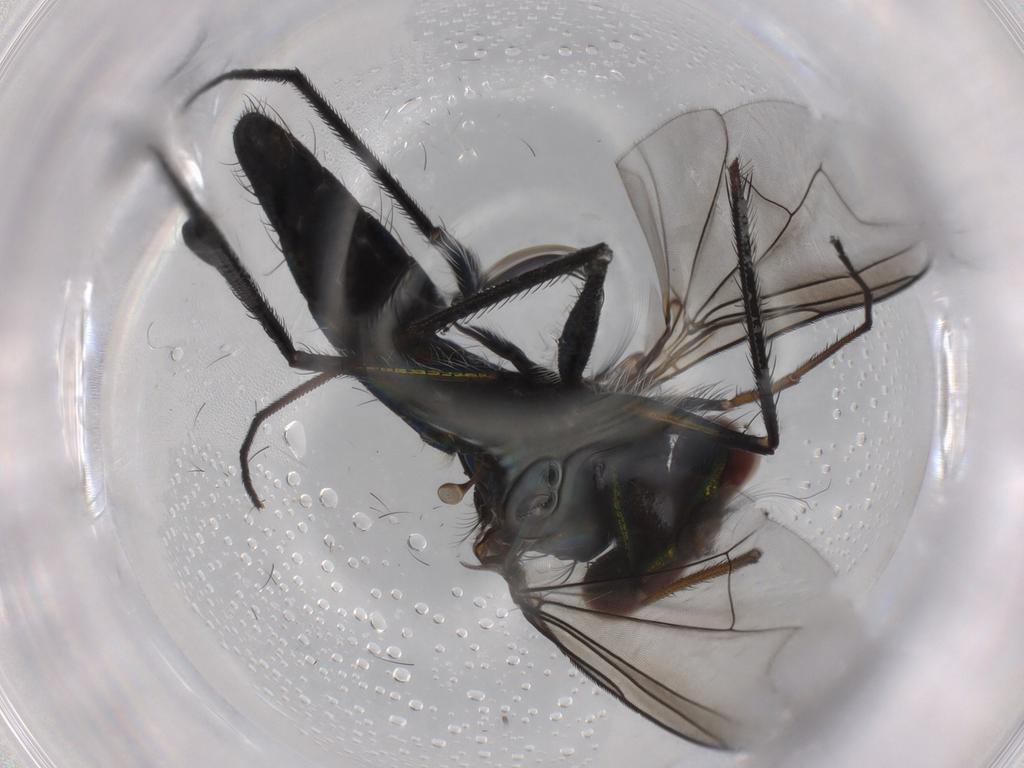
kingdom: Animalia
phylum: Arthropoda
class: Insecta
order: Diptera
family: Dolichopodidae
